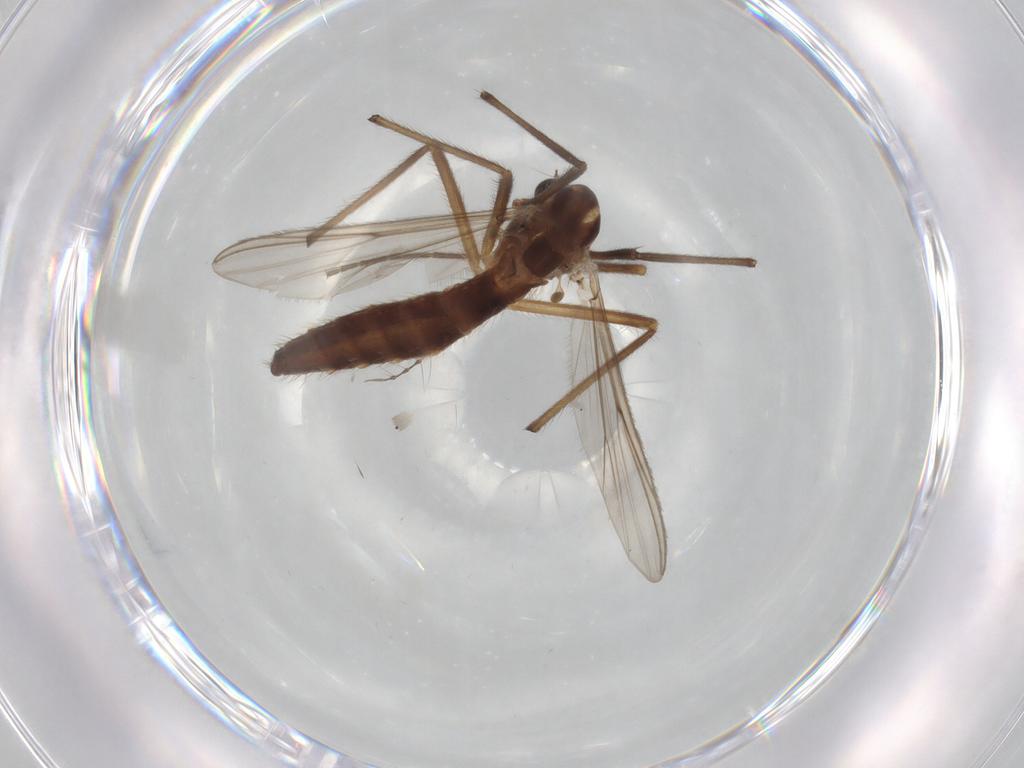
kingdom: Animalia
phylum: Arthropoda
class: Insecta
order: Diptera
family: Chironomidae
